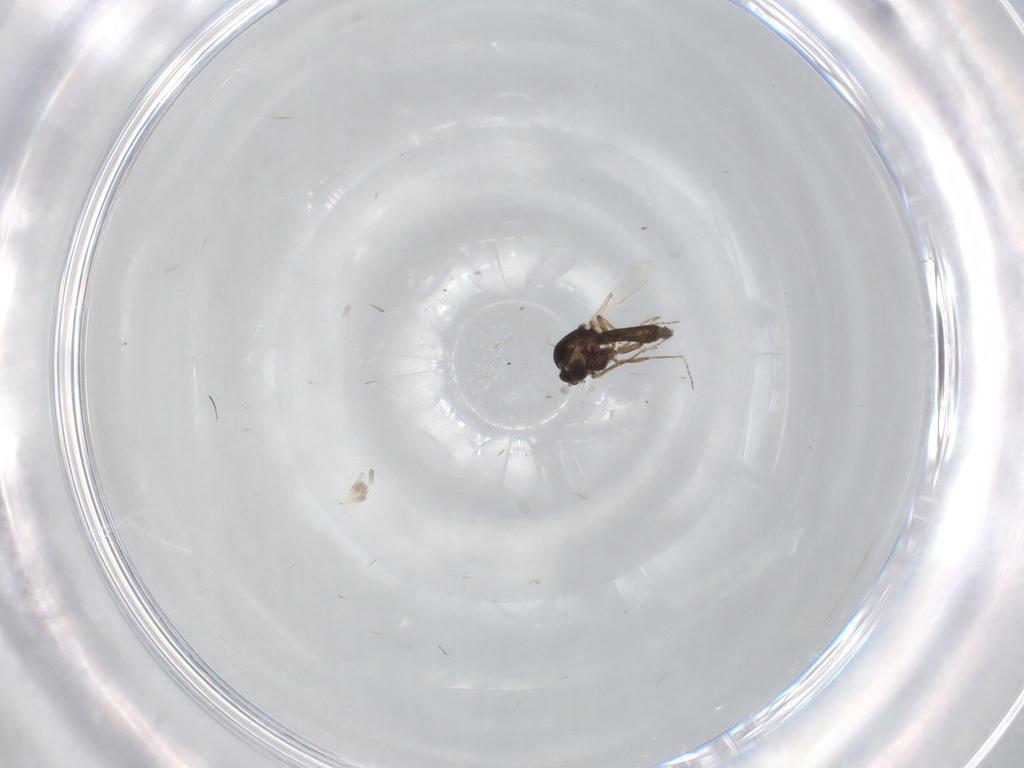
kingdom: Animalia
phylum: Arthropoda
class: Insecta
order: Diptera
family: Ceratopogonidae
